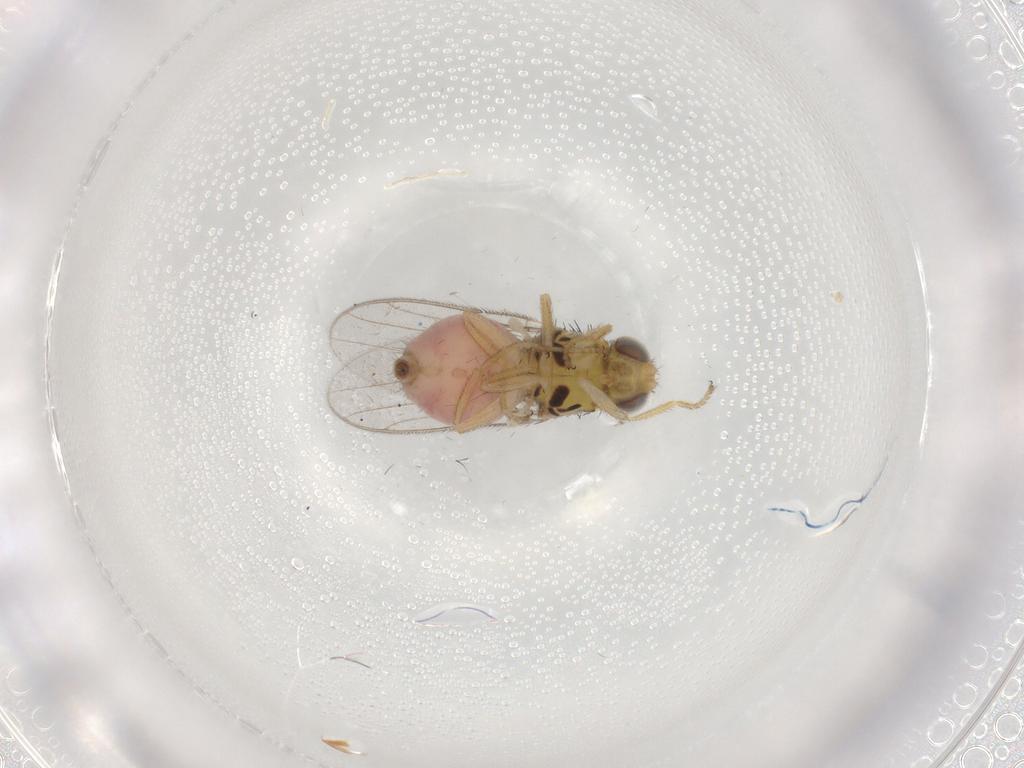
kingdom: Animalia
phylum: Arthropoda
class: Insecta
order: Diptera
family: Chloropidae
